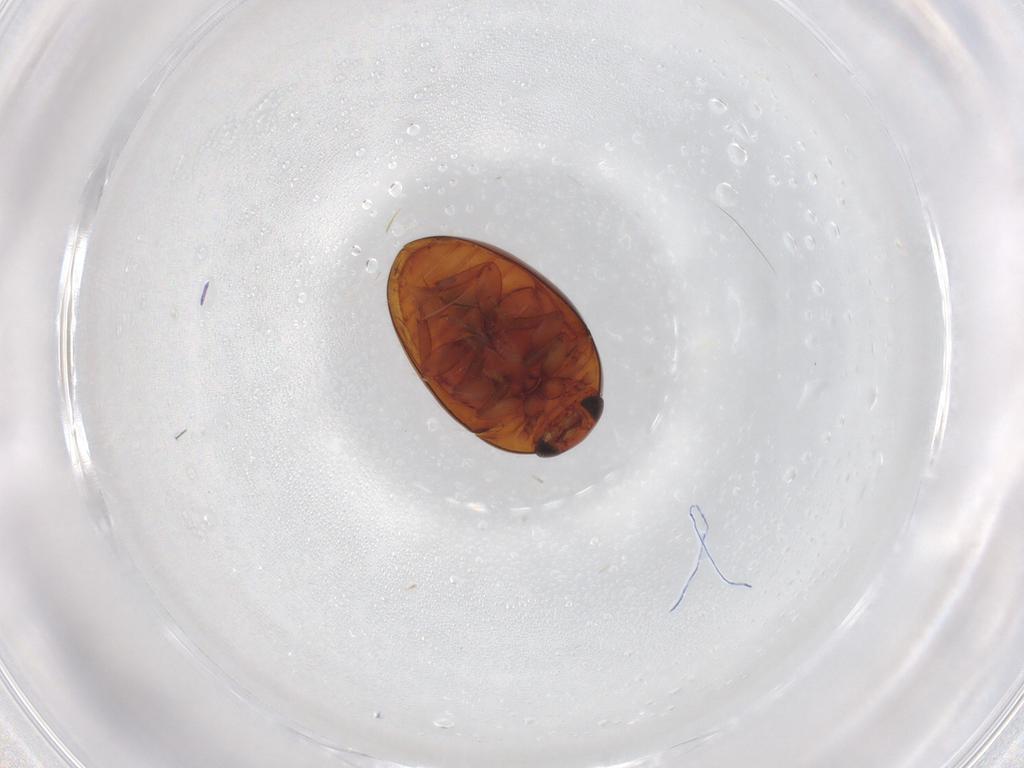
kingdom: Animalia
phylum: Arthropoda
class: Insecta
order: Coleoptera
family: Phalacridae
